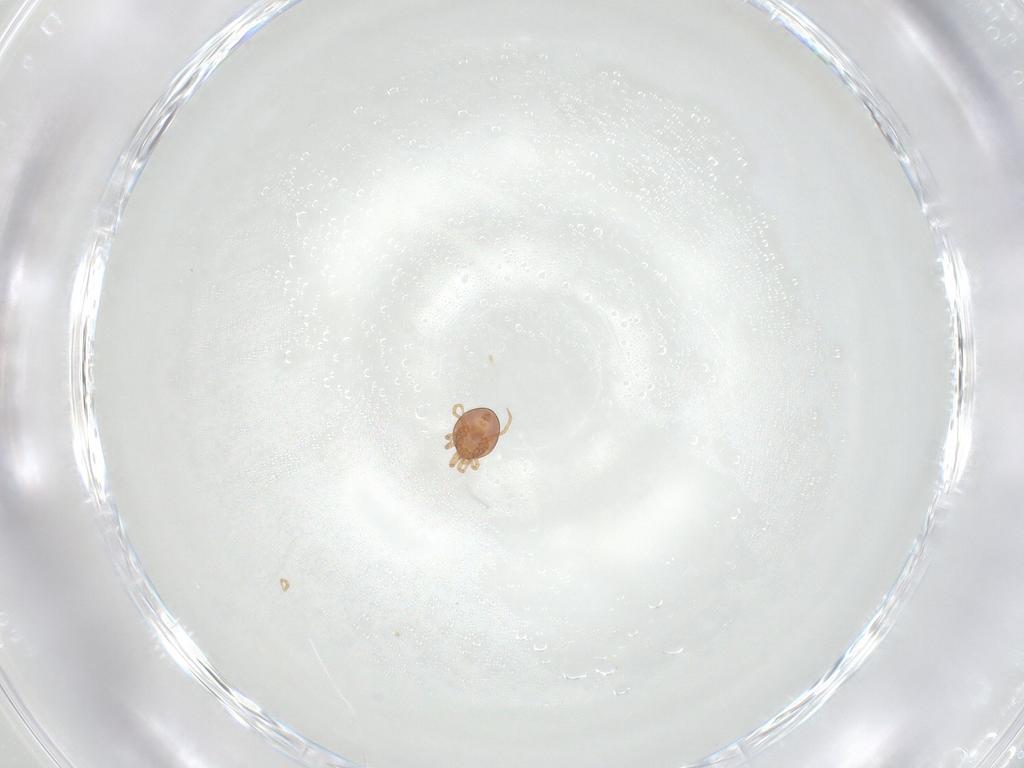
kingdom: Animalia
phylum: Arthropoda
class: Arachnida
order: Mesostigmata
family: Phytoseiidae
